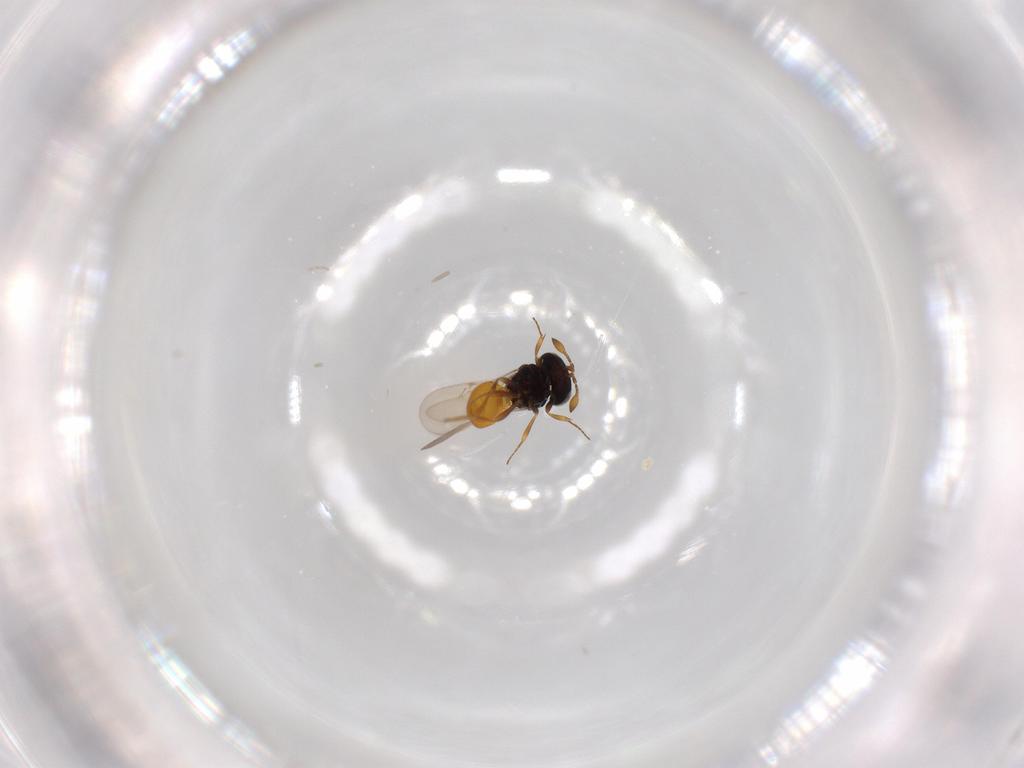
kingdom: Animalia
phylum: Arthropoda
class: Insecta
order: Hymenoptera
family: Scelionidae
